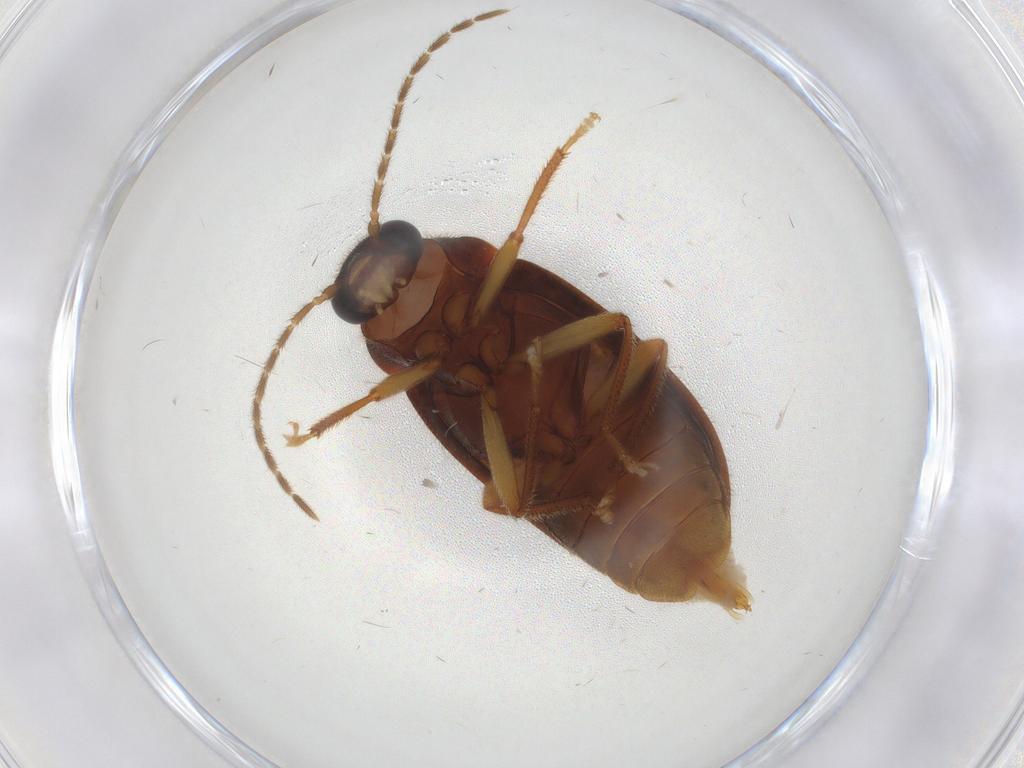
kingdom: Animalia
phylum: Arthropoda
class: Insecta
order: Coleoptera
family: Ptilodactylidae
